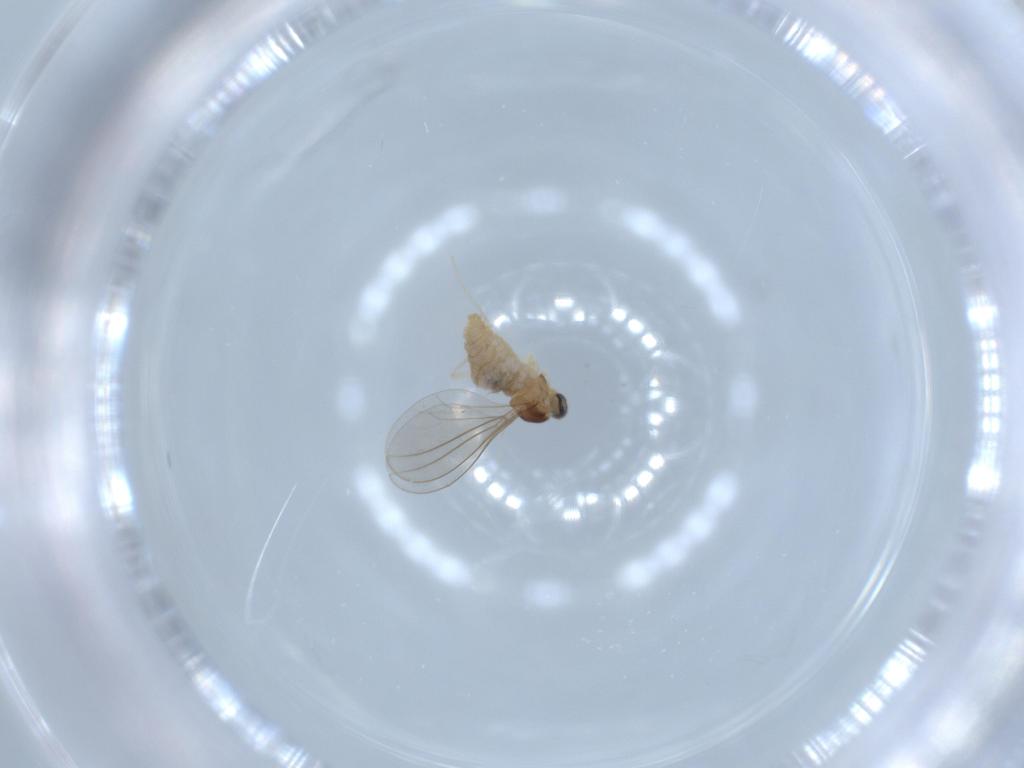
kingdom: Animalia
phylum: Arthropoda
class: Insecta
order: Diptera
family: Cecidomyiidae
